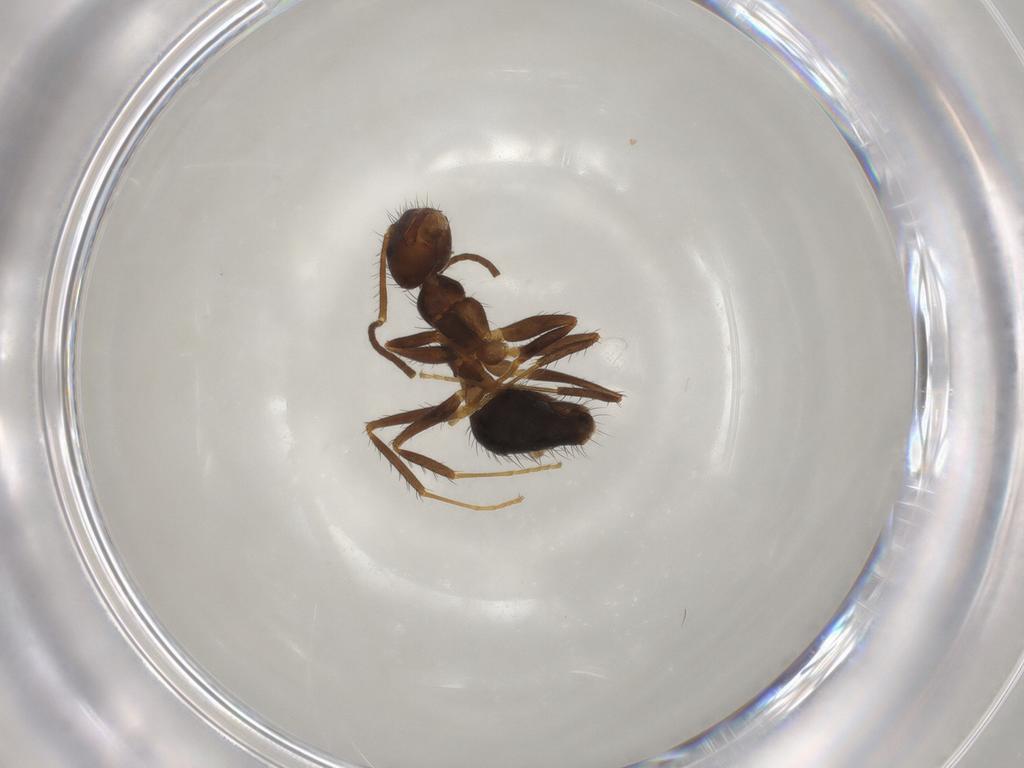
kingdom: Animalia
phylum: Arthropoda
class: Insecta
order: Hymenoptera
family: Formicidae
